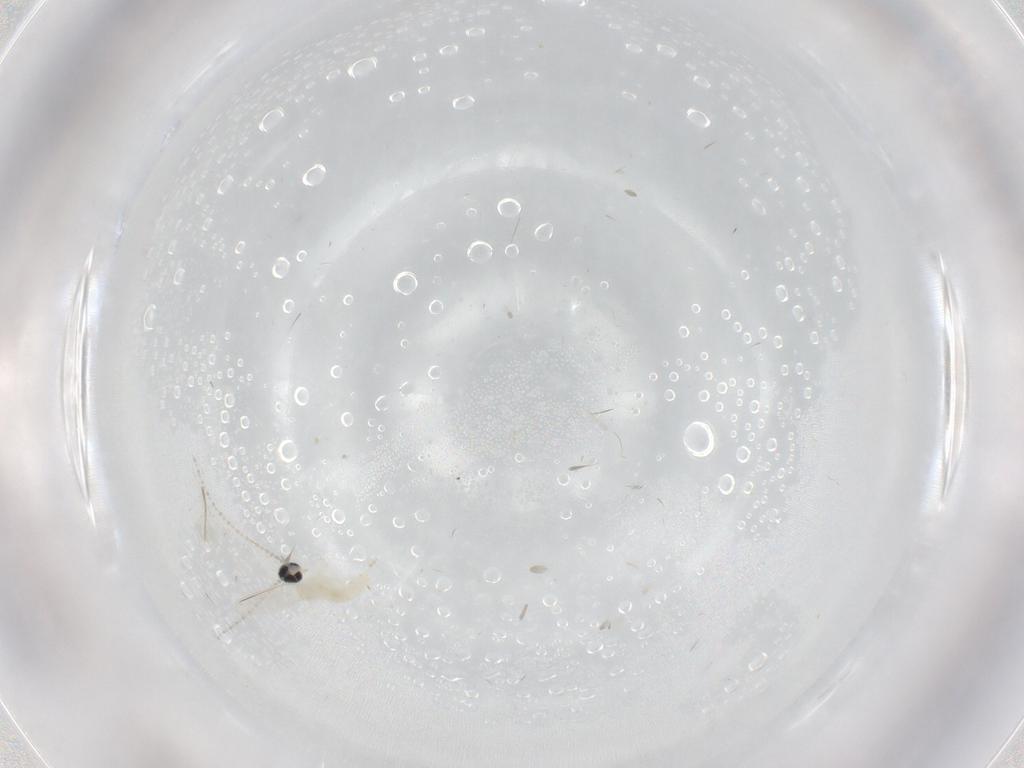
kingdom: Animalia
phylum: Arthropoda
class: Insecta
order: Diptera
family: Cecidomyiidae
